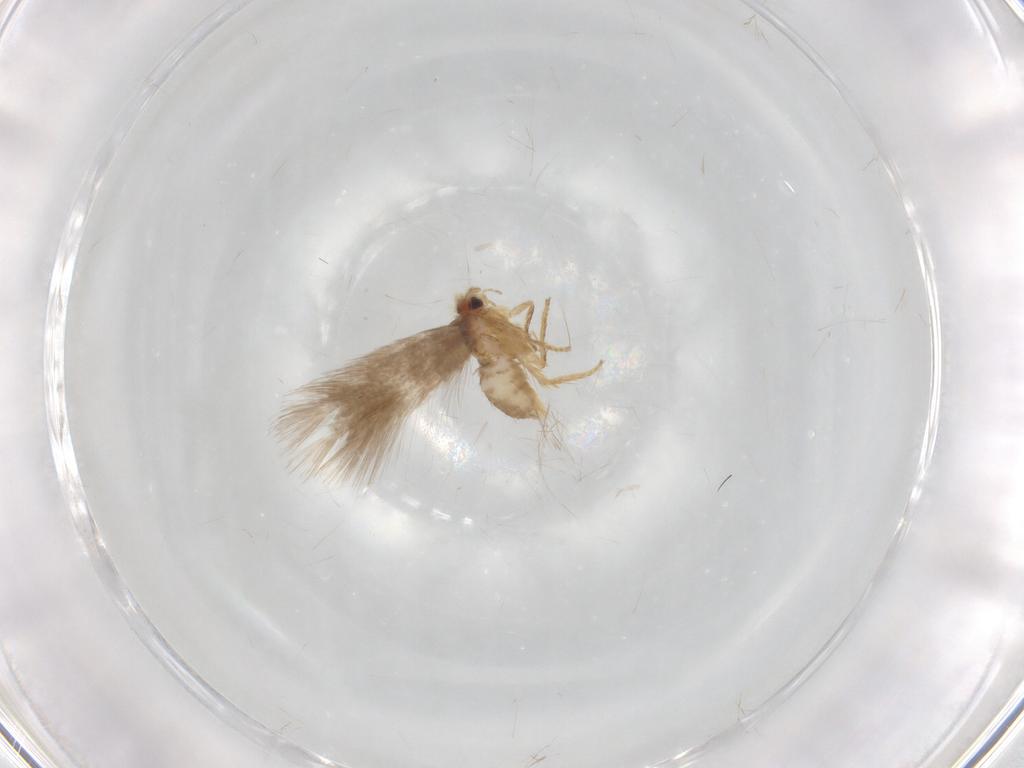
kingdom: Animalia
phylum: Arthropoda
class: Insecta
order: Lepidoptera
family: Nepticulidae
